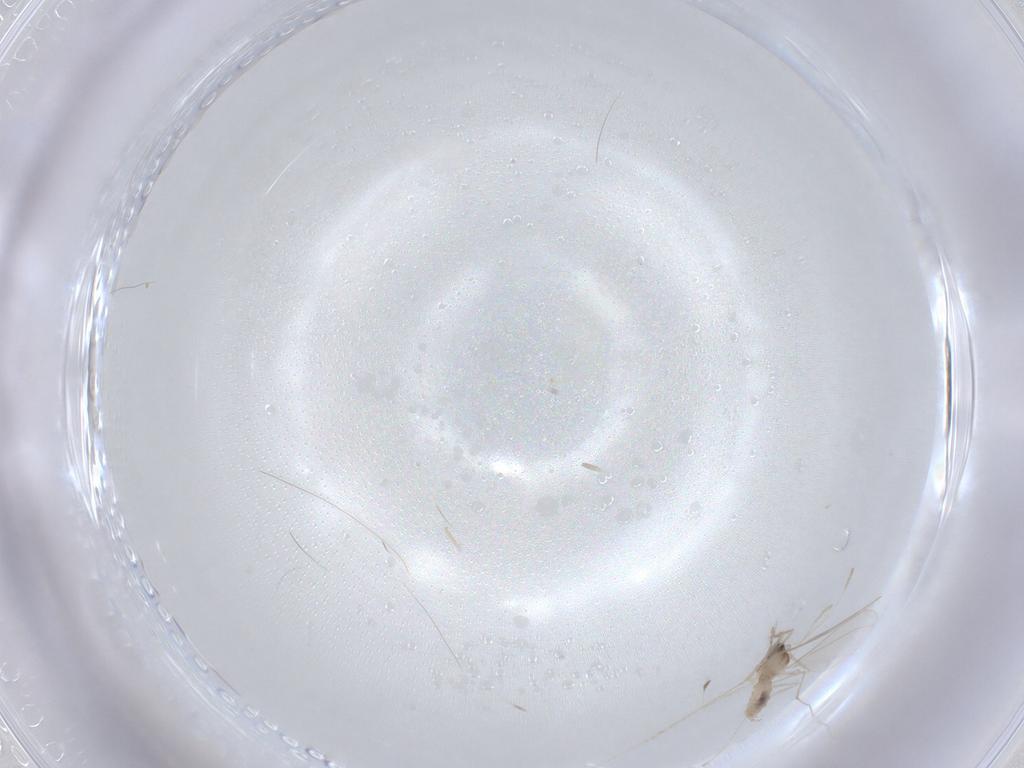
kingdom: Animalia
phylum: Arthropoda
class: Insecta
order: Diptera
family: Cecidomyiidae
